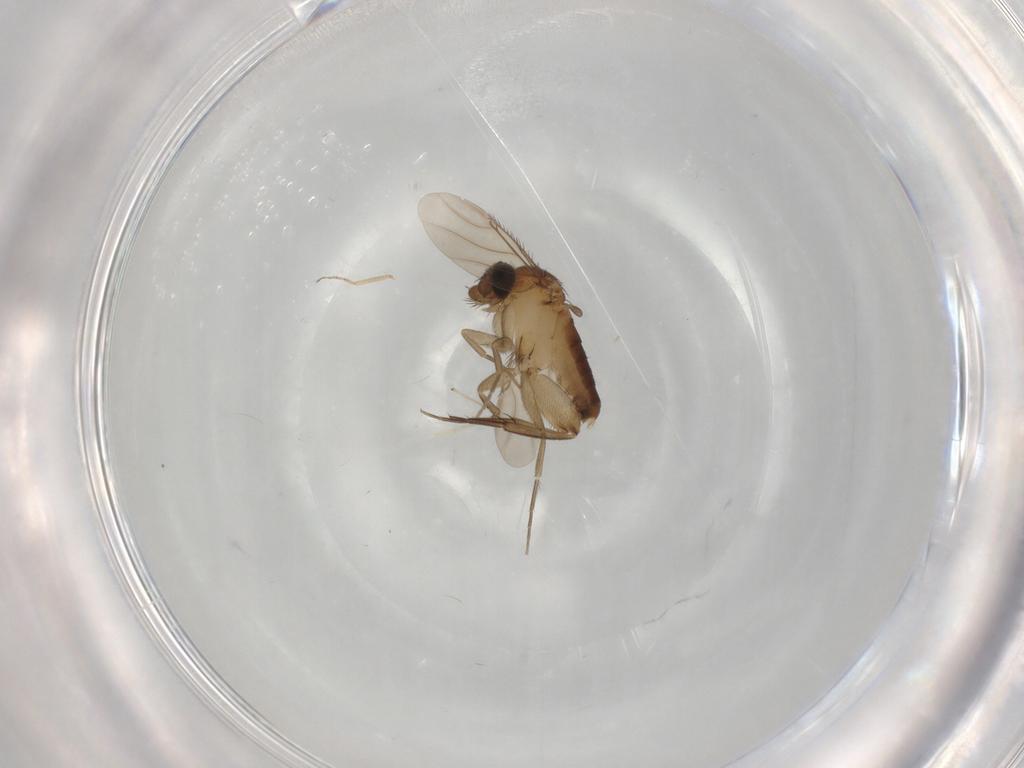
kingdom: Animalia
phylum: Arthropoda
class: Insecta
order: Diptera
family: Phoridae
